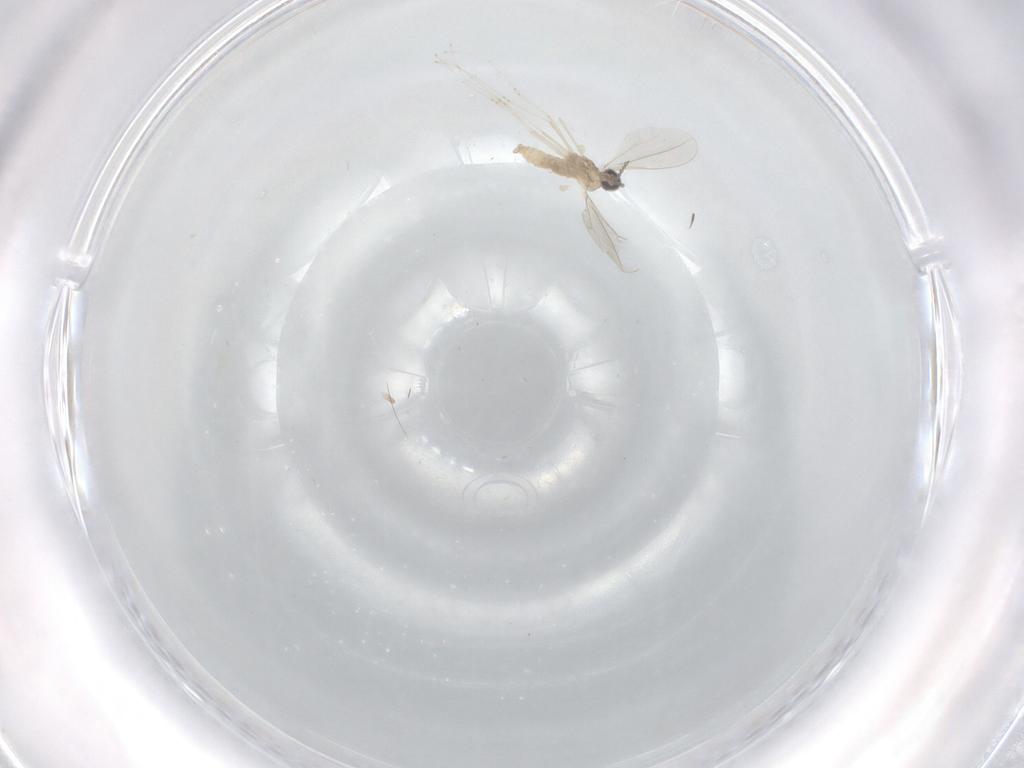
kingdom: Animalia
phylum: Arthropoda
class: Insecta
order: Diptera
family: Cecidomyiidae
